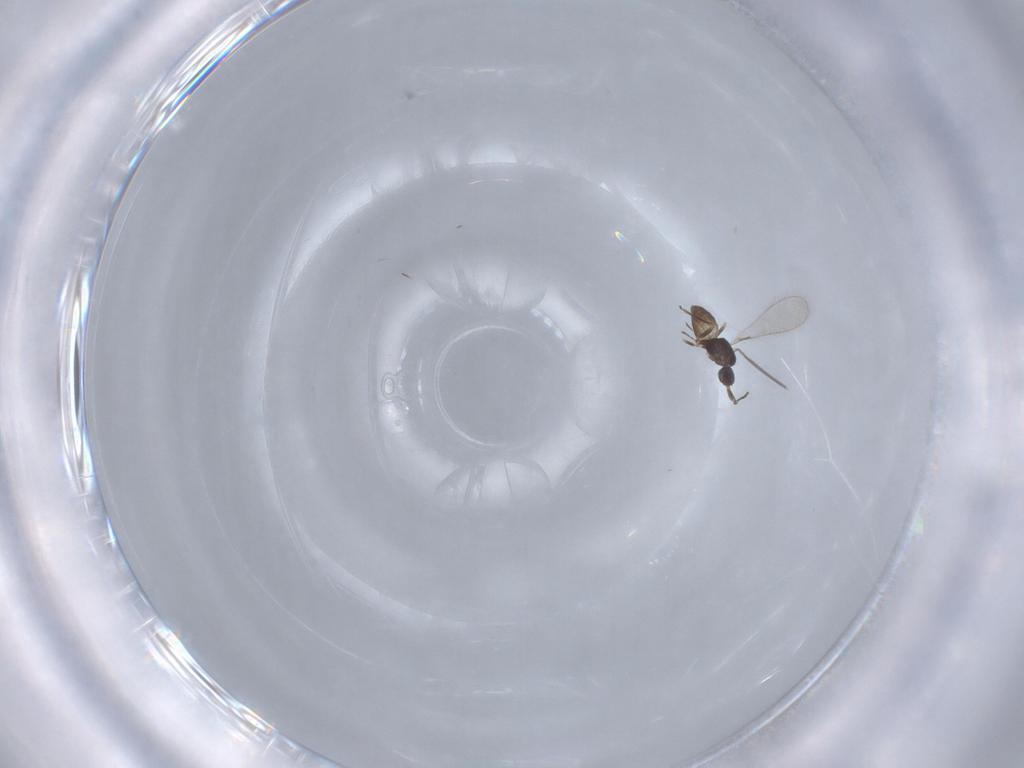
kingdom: Animalia
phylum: Arthropoda
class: Insecta
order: Hymenoptera
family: Mymaridae
